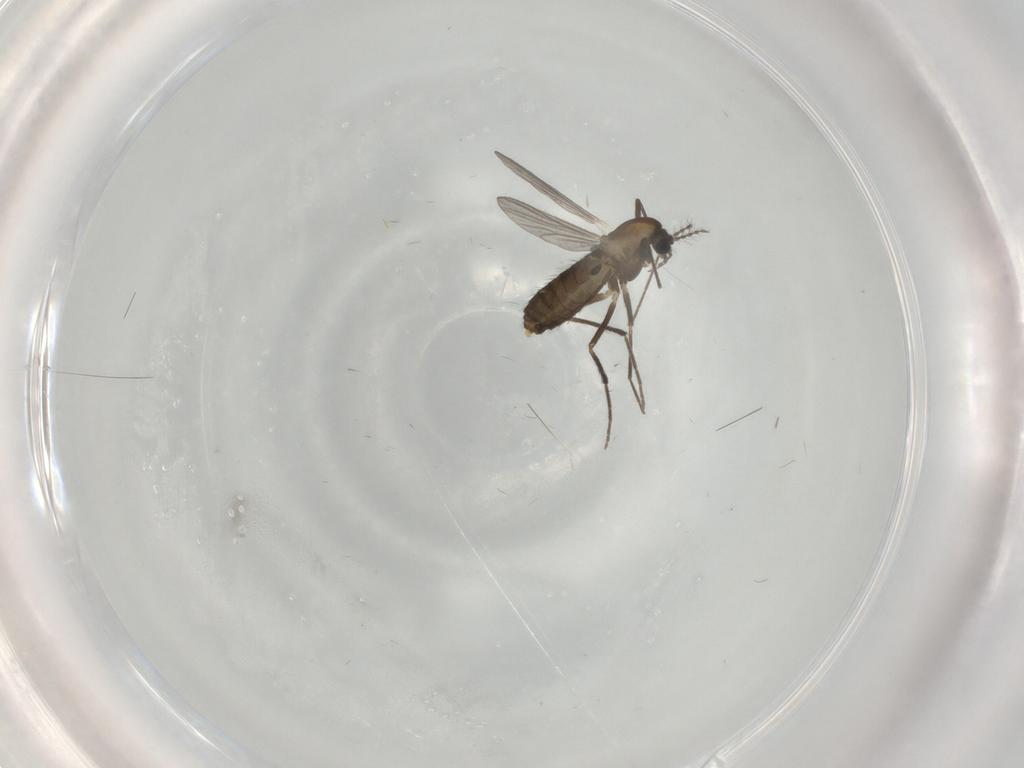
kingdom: Animalia
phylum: Arthropoda
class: Insecta
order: Diptera
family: Chironomidae
